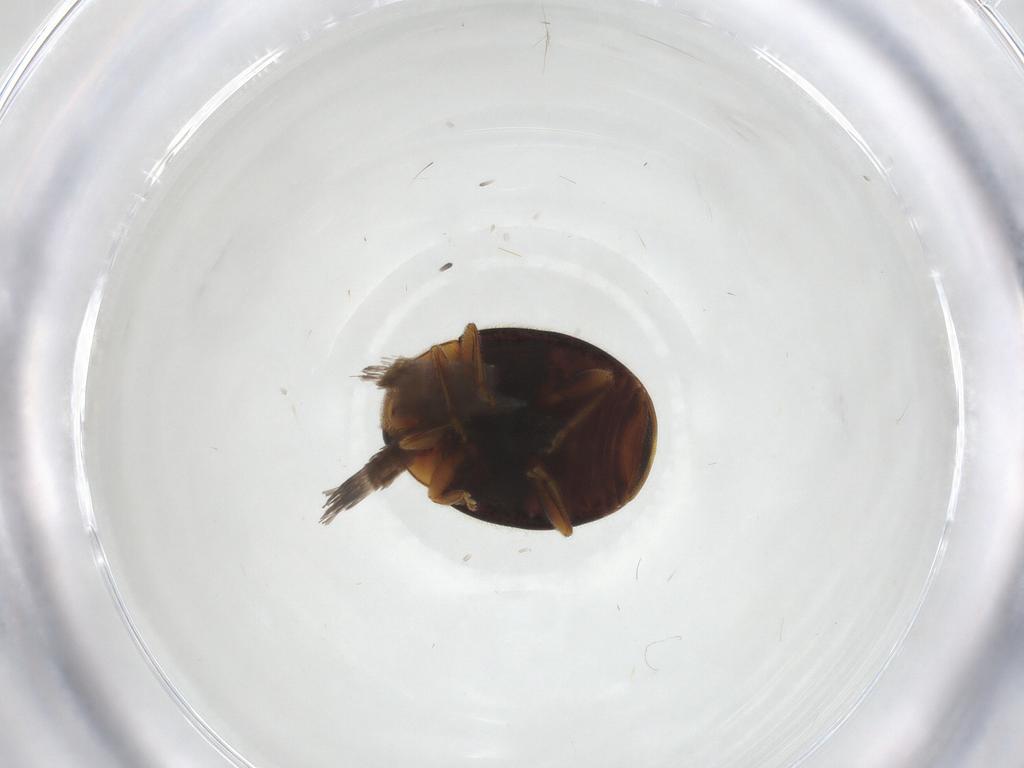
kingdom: Animalia
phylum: Arthropoda
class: Insecta
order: Coleoptera
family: Coccinellidae
